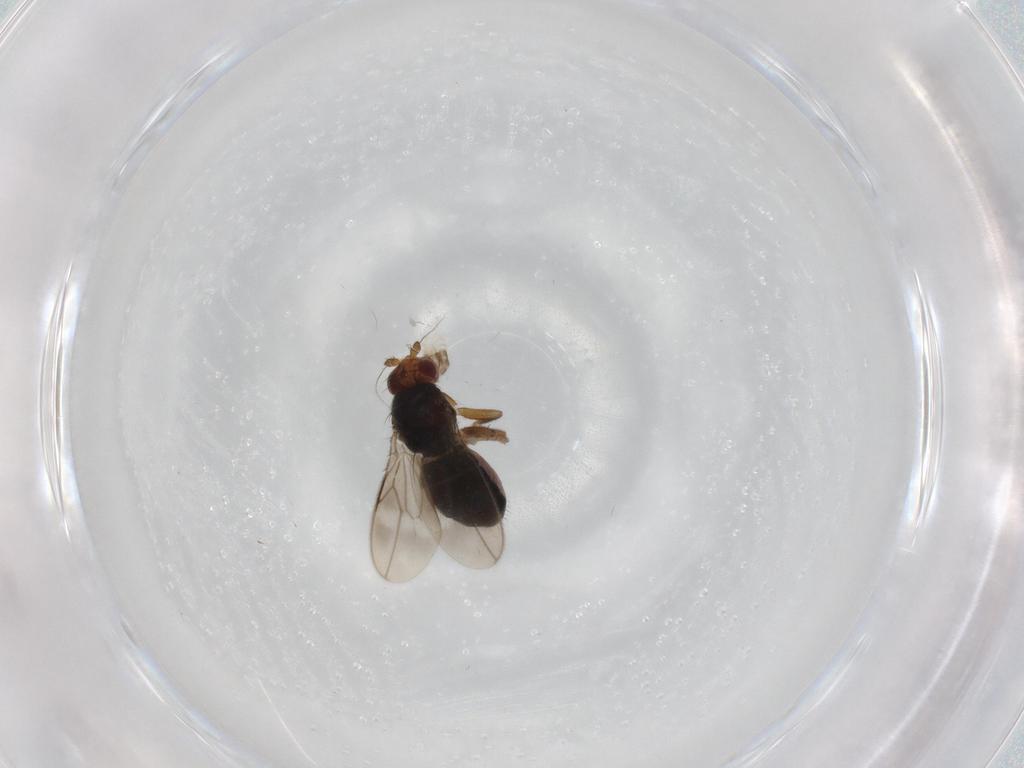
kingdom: Animalia
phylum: Arthropoda
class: Insecta
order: Diptera
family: Sphaeroceridae
